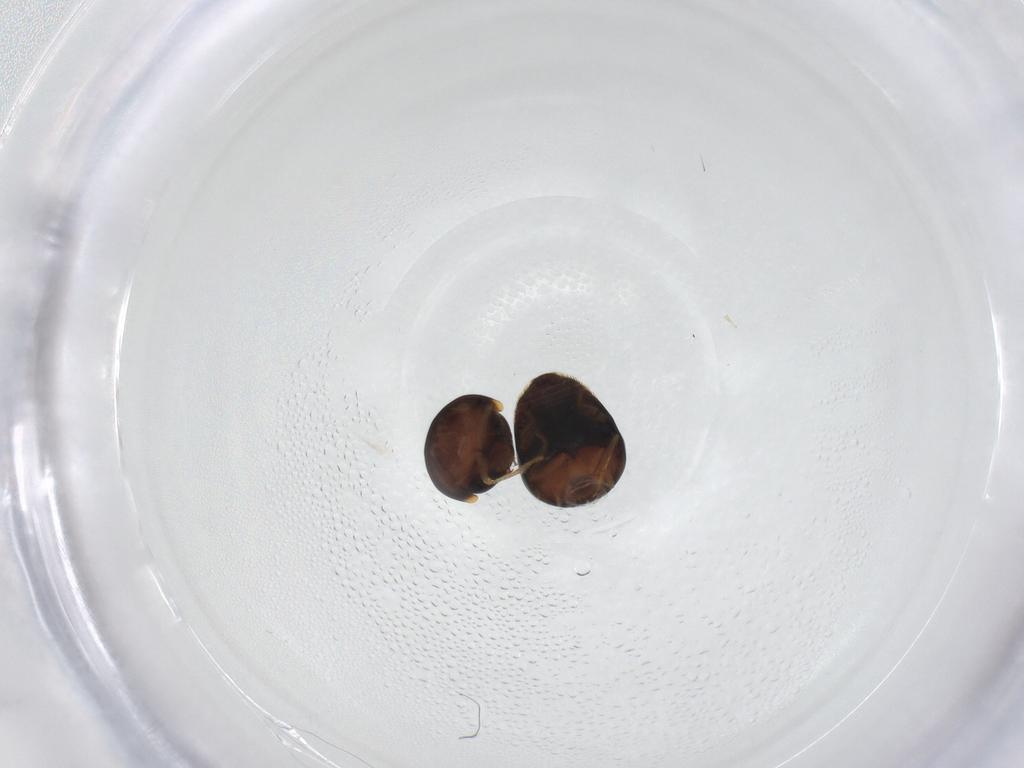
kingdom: Animalia
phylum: Arthropoda
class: Insecta
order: Coleoptera
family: Cybocephalidae
